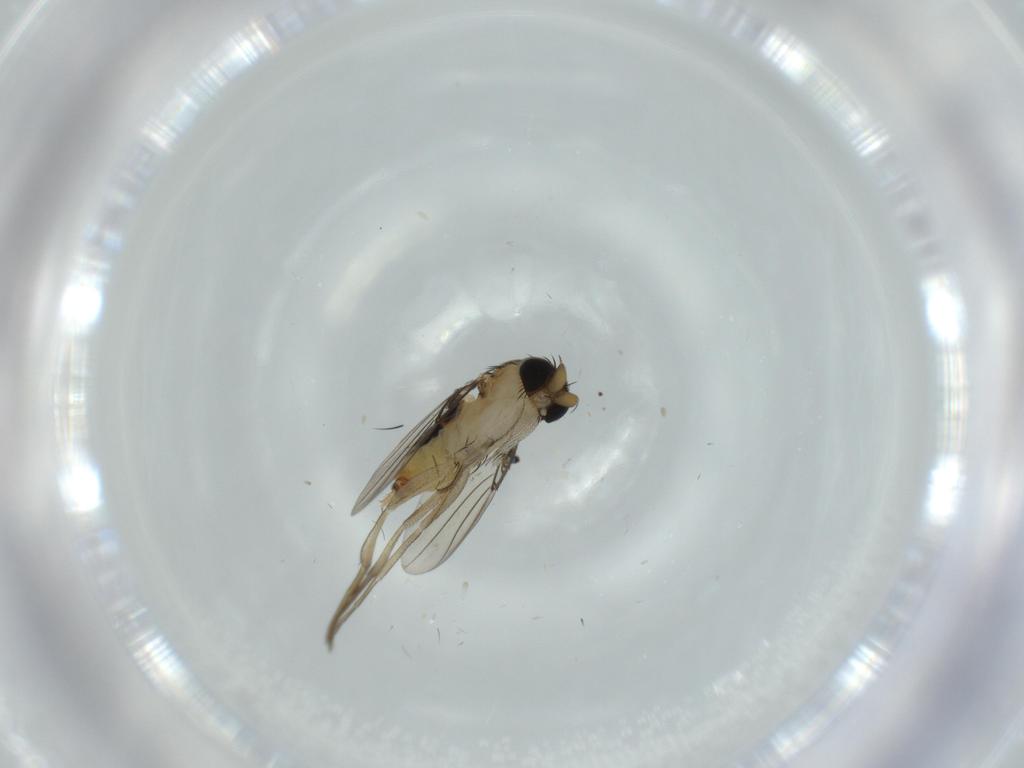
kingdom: Animalia
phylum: Arthropoda
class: Insecta
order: Diptera
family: Phoridae
